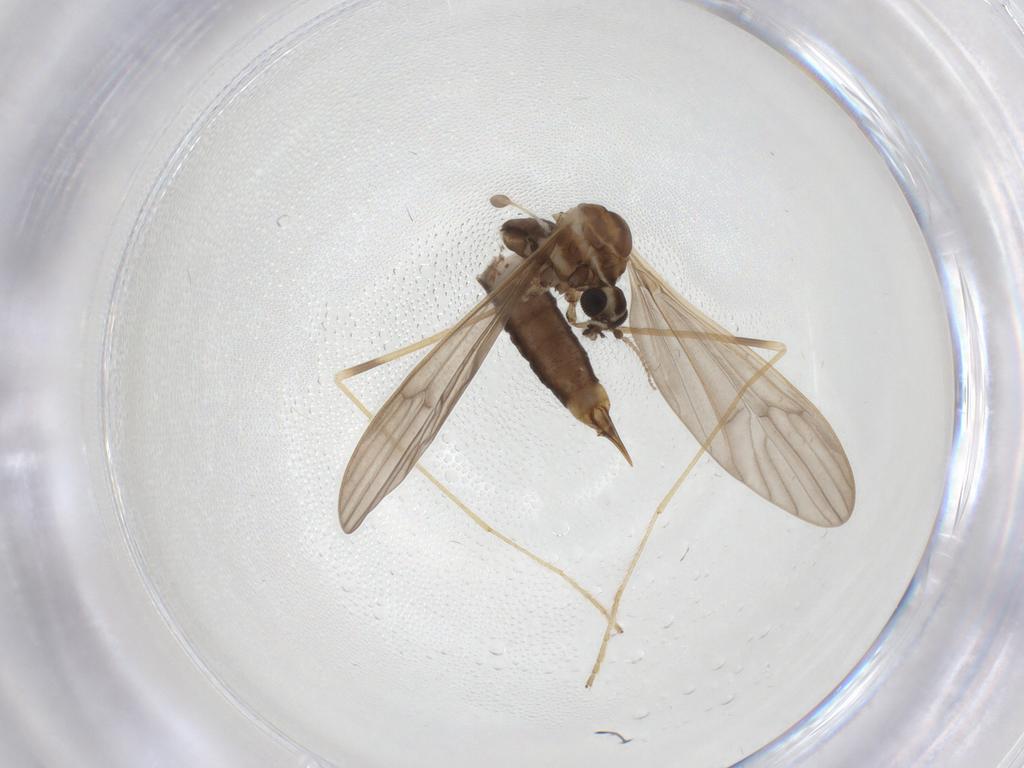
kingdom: Animalia
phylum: Arthropoda
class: Insecta
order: Diptera
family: Limoniidae
